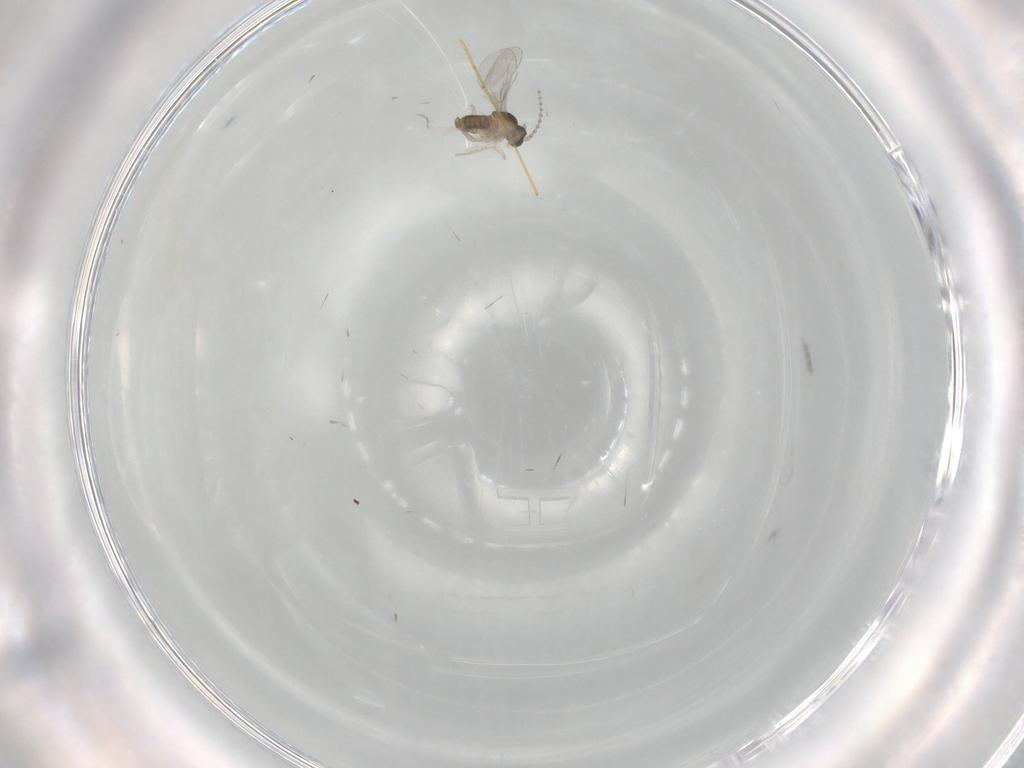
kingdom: Animalia
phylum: Arthropoda
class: Insecta
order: Diptera
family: Cecidomyiidae
